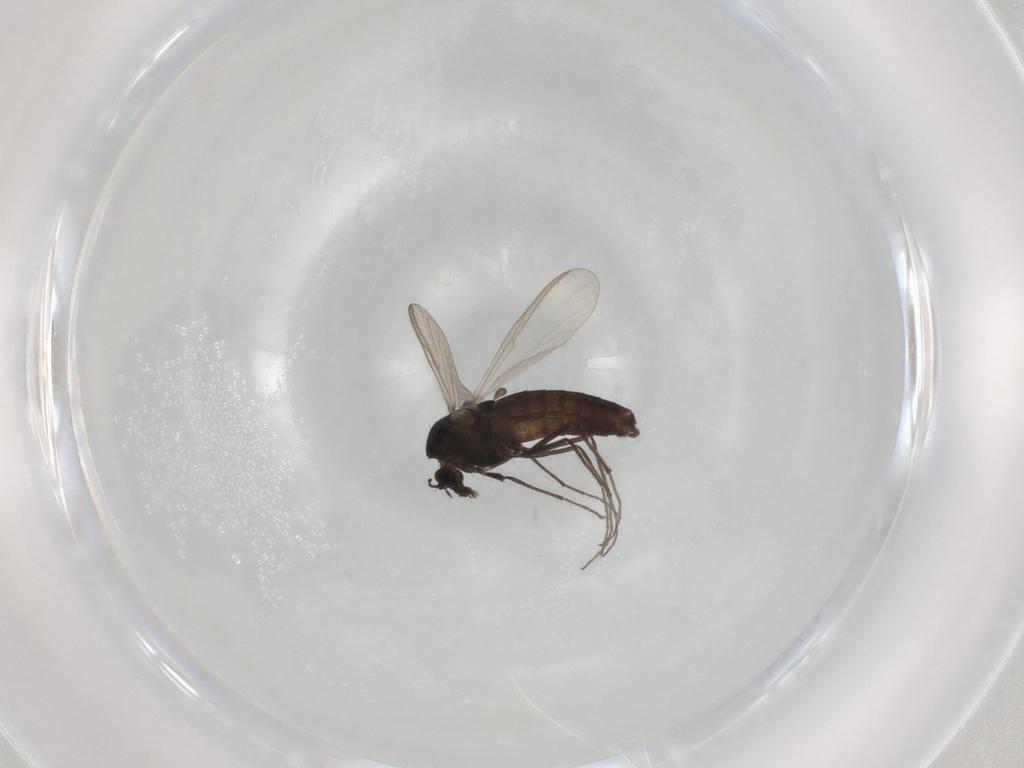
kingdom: Animalia
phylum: Arthropoda
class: Insecta
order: Diptera
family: Chironomidae
